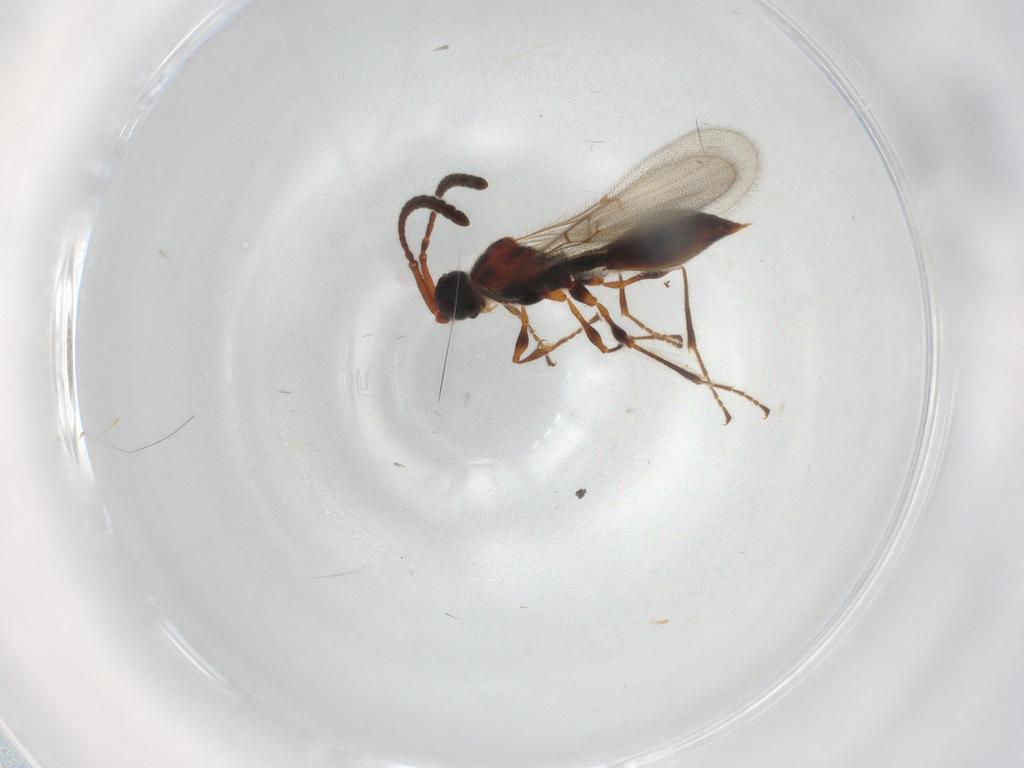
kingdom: Animalia
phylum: Arthropoda
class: Insecta
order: Hymenoptera
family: Diapriidae
